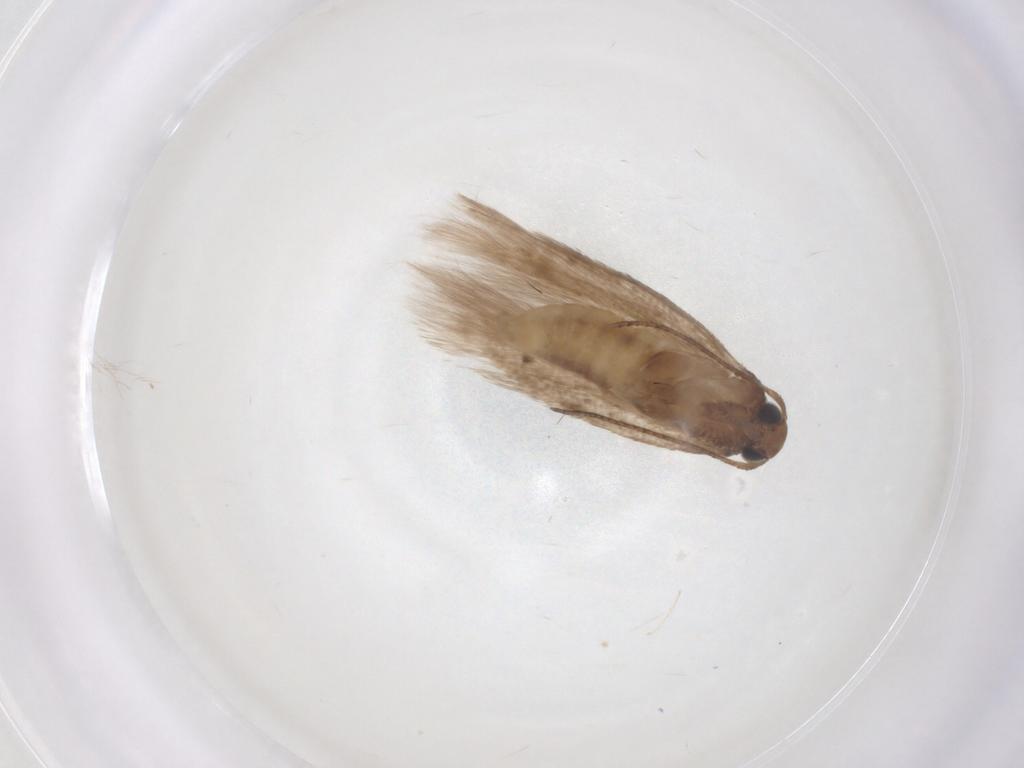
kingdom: Animalia
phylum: Arthropoda
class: Insecta
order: Lepidoptera
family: Gelechiidae
